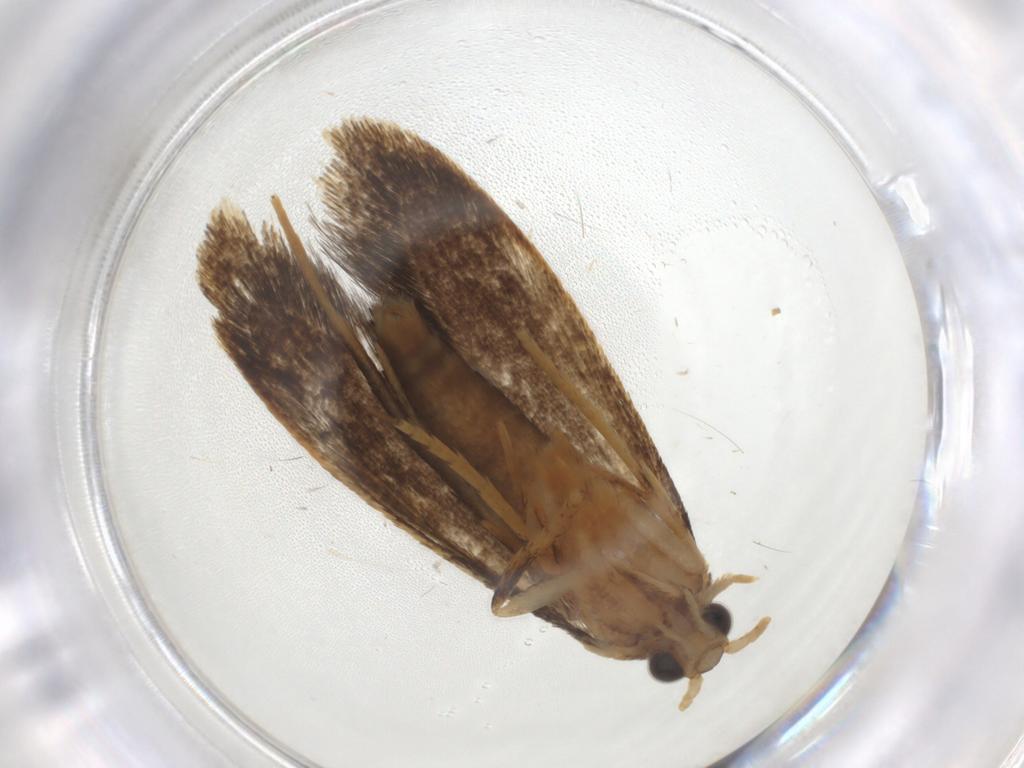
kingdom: Animalia
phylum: Arthropoda
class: Insecta
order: Lepidoptera
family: Tineidae
